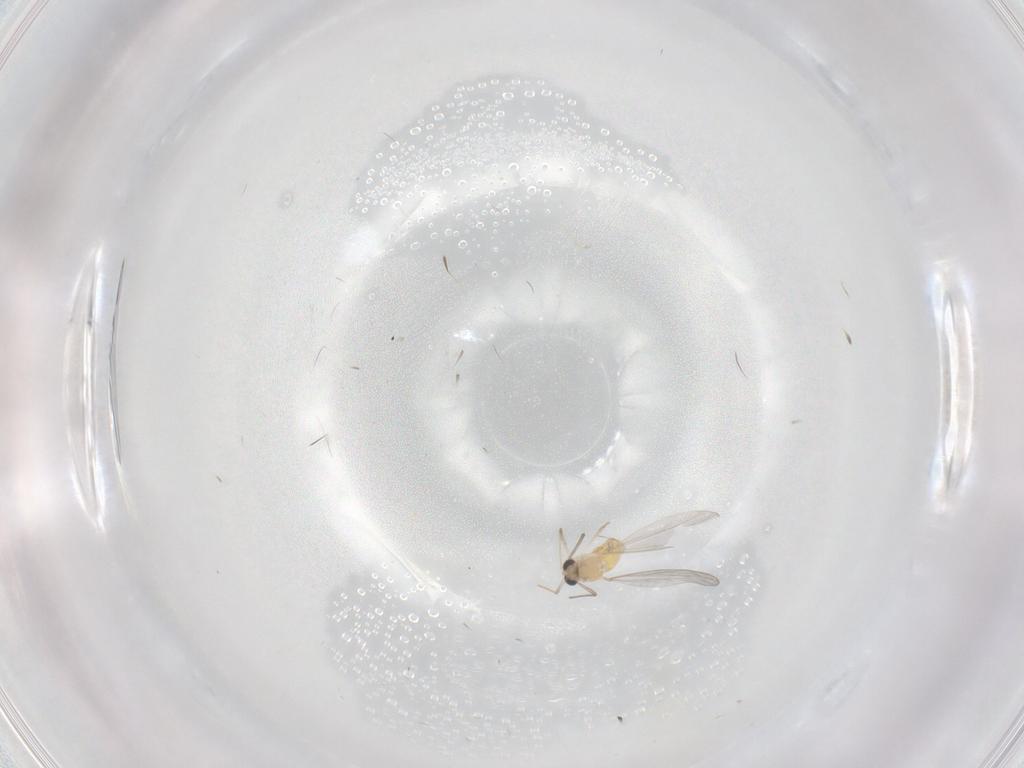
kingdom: Animalia
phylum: Arthropoda
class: Insecta
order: Diptera
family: Chironomidae
